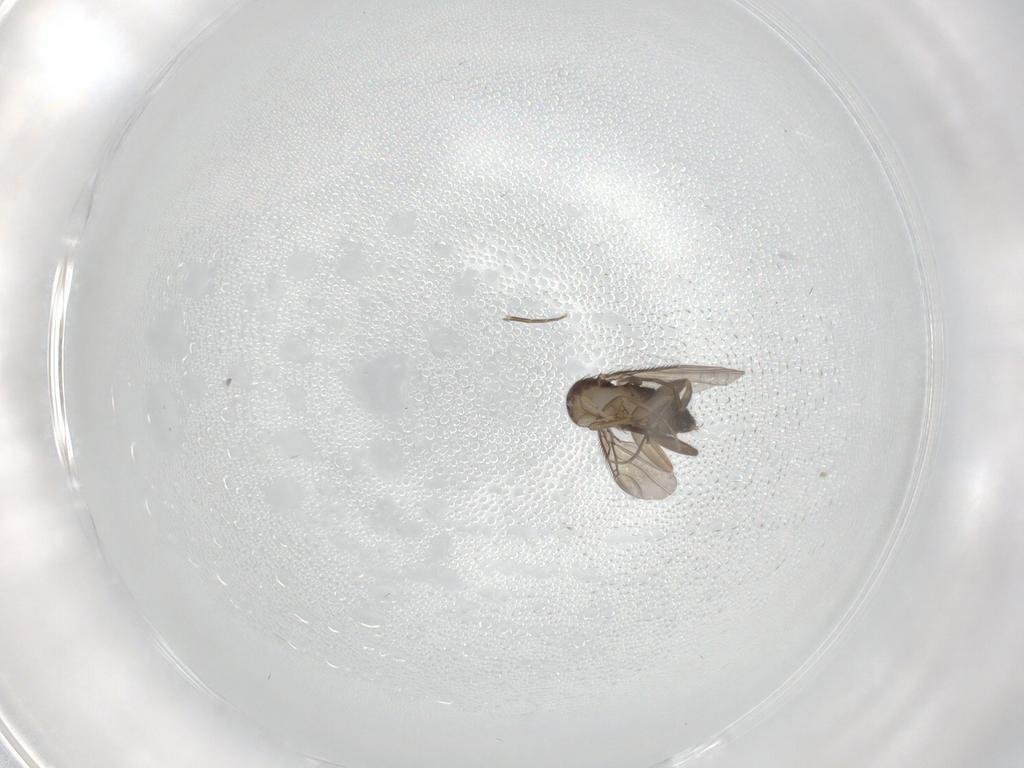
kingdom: Animalia
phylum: Arthropoda
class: Insecta
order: Diptera
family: Phoridae
